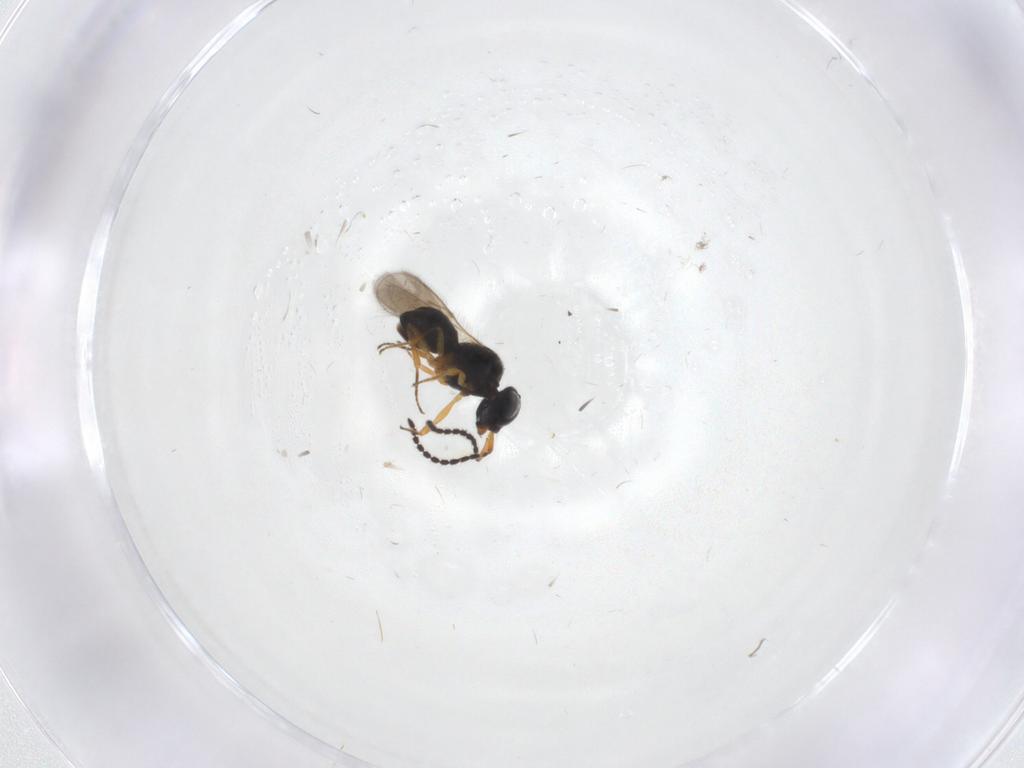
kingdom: Animalia
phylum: Arthropoda
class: Insecta
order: Hymenoptera
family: Scelionidae
